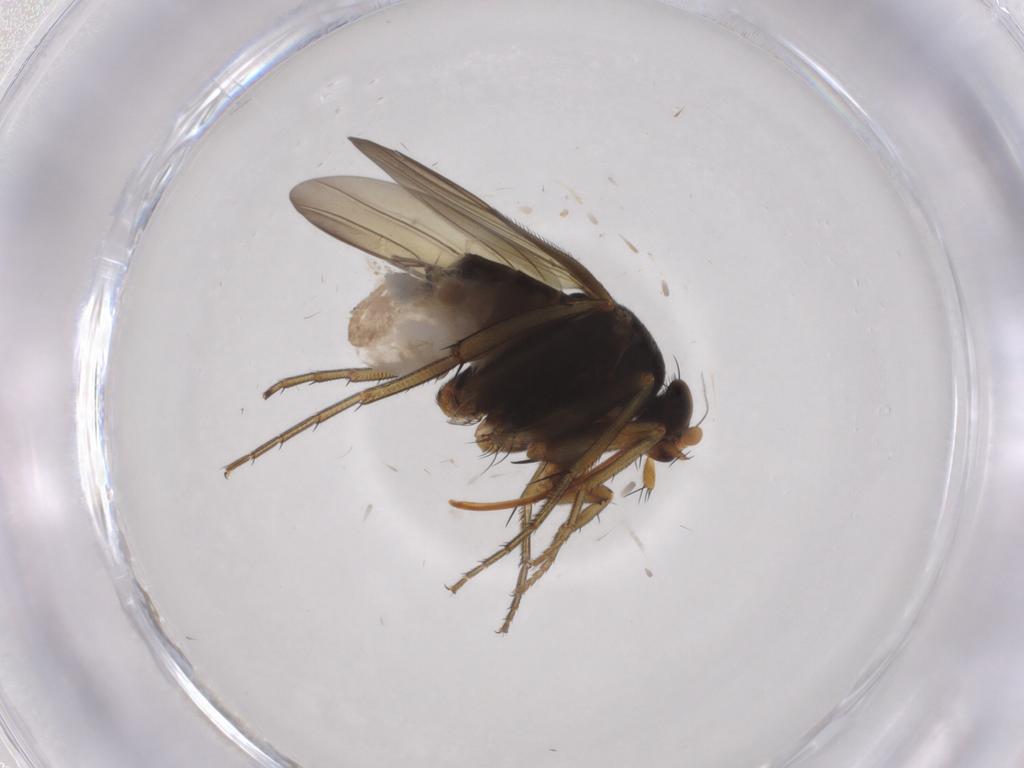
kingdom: Animalia
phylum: Arthropoda
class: Insecta
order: Diptera
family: Phoridae
